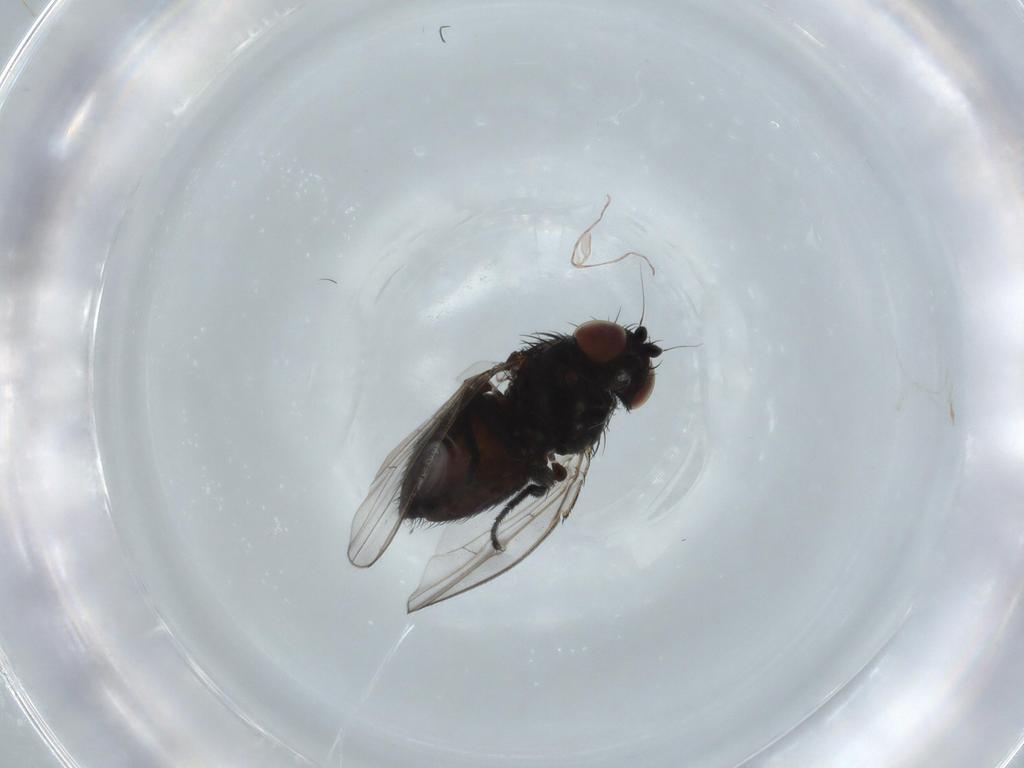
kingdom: Animalia
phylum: Arthropoda
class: Insecta
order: Diptera
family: Milichiidae
